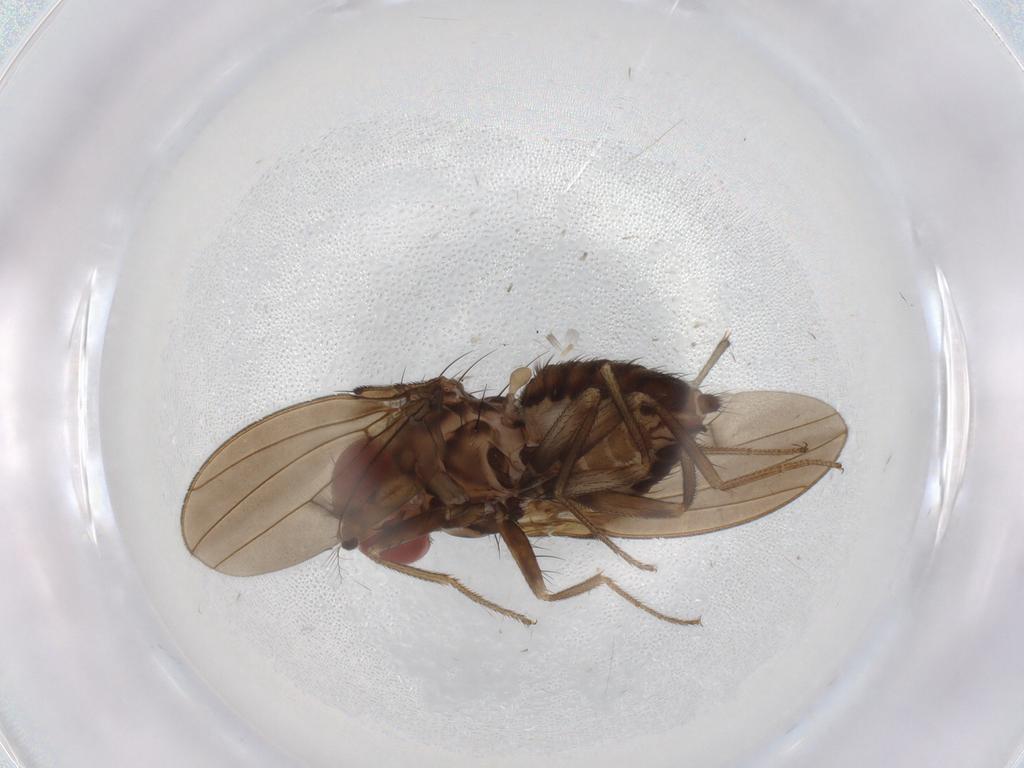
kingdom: Animalia
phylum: Arthropoda
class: Insecta
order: Diptera
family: Drosophilidae
